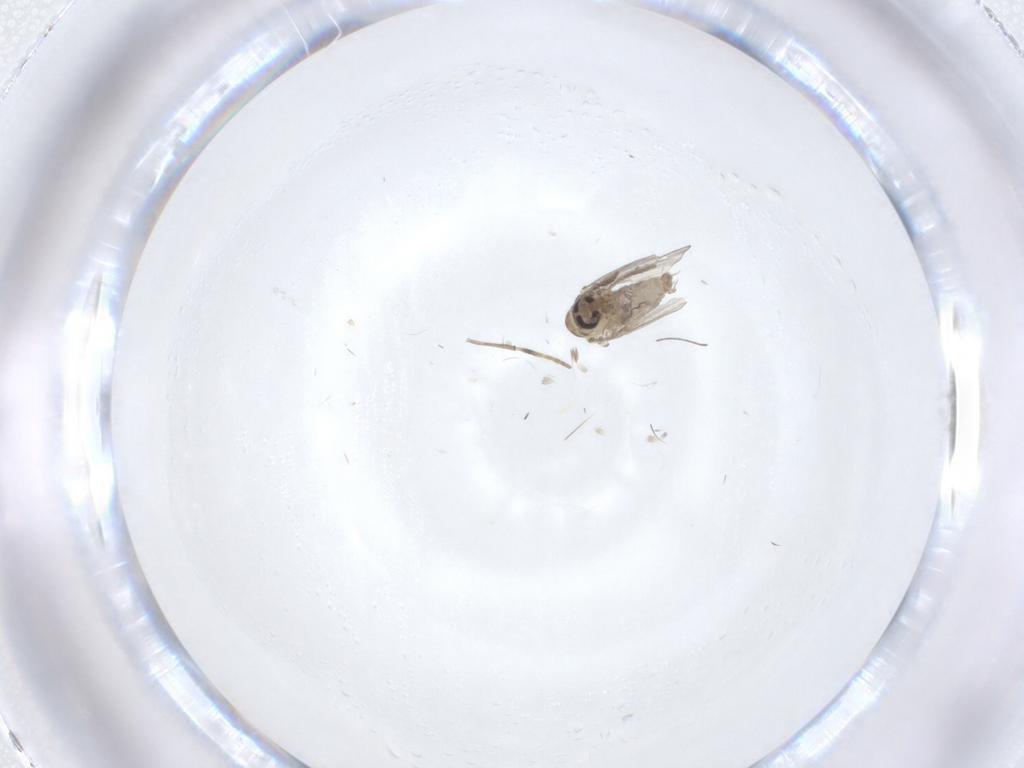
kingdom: Animalia
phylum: Arthropoda
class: Insecta
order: Diptera
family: Psychodidae
